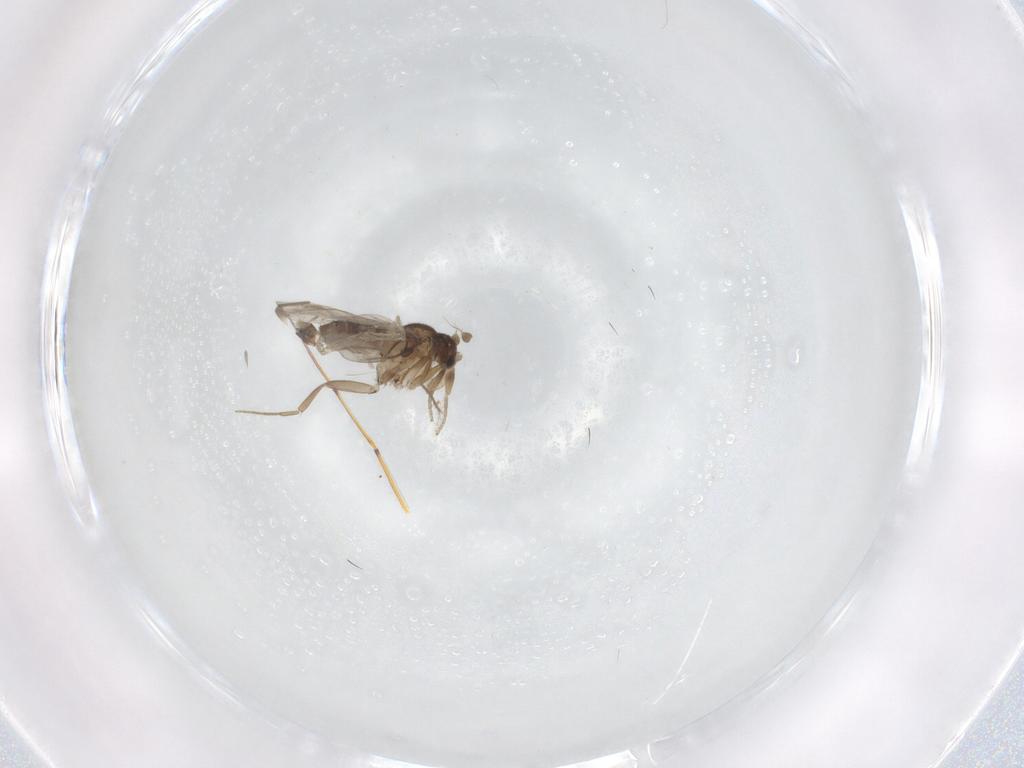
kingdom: Animalia
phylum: Arthropoda
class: Insecta
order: Diptera
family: Phoridae
